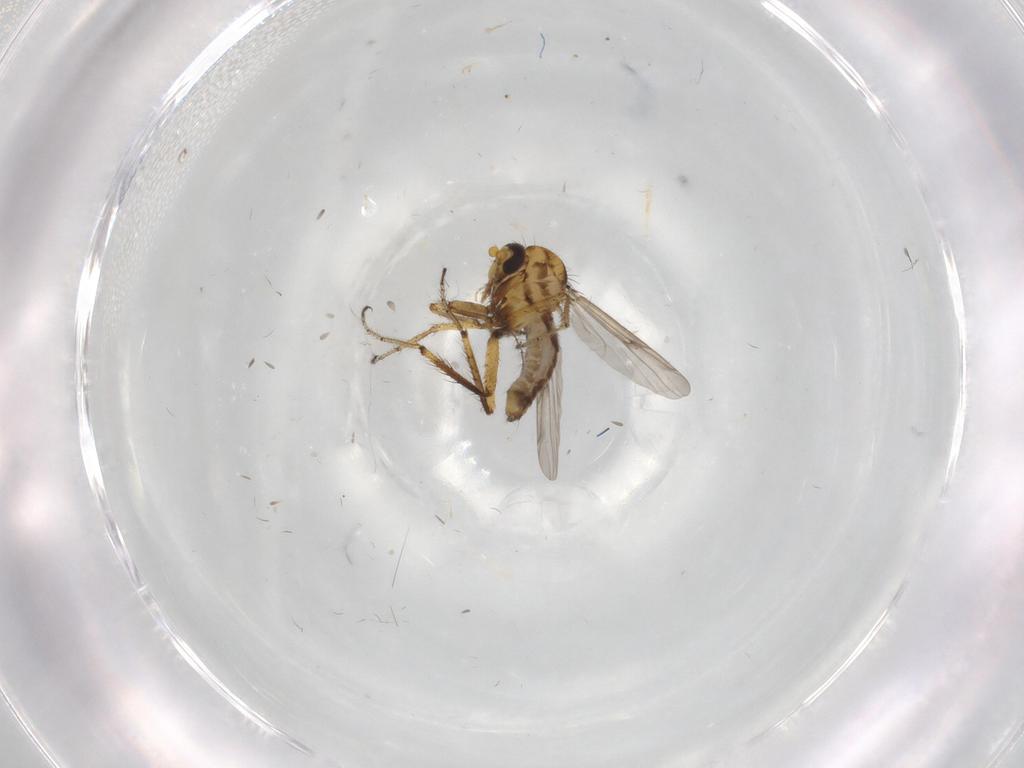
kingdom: Animalia
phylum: Arthropoda
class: Insecta
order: Diptera
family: Ceratopogonidae
